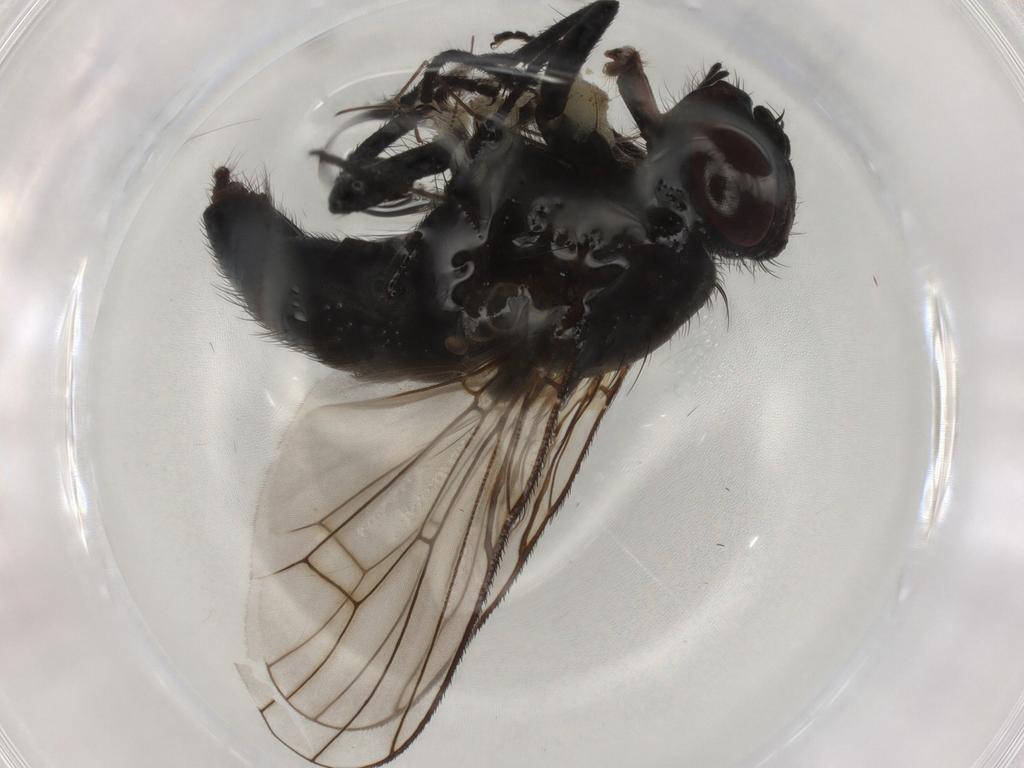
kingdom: Animalia
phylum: Arthropoda
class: Insecta
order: Diptera
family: Muscidae
